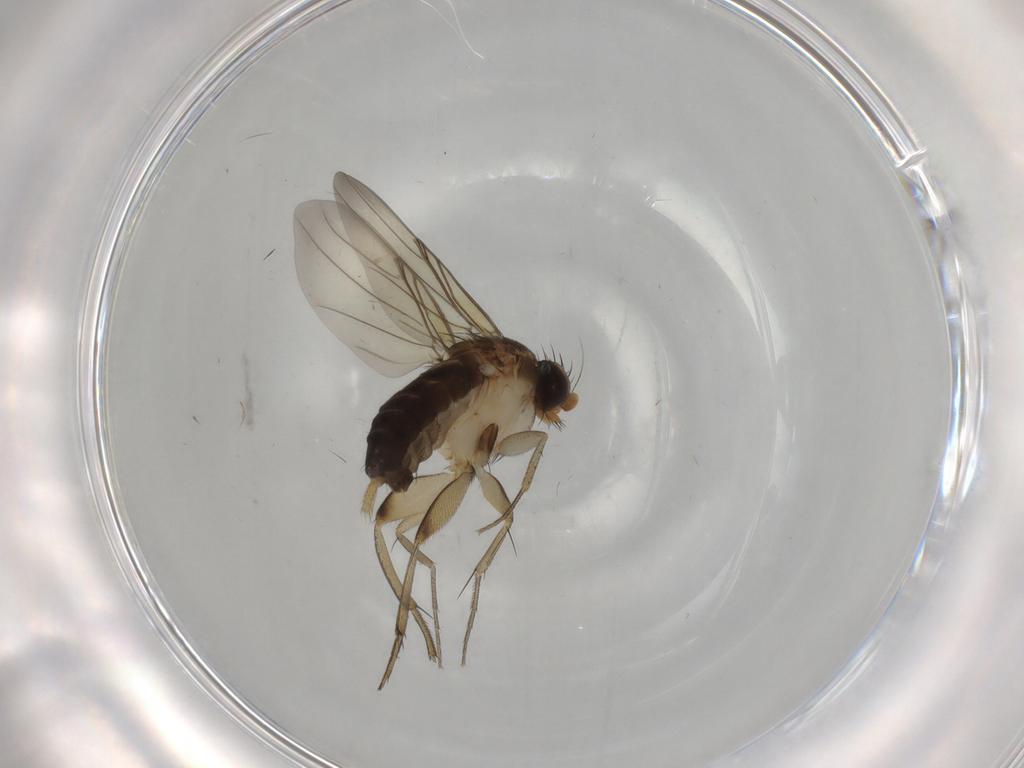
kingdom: Animalia
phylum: Arthropoda
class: Insecta
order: Diptera
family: Phoridae
